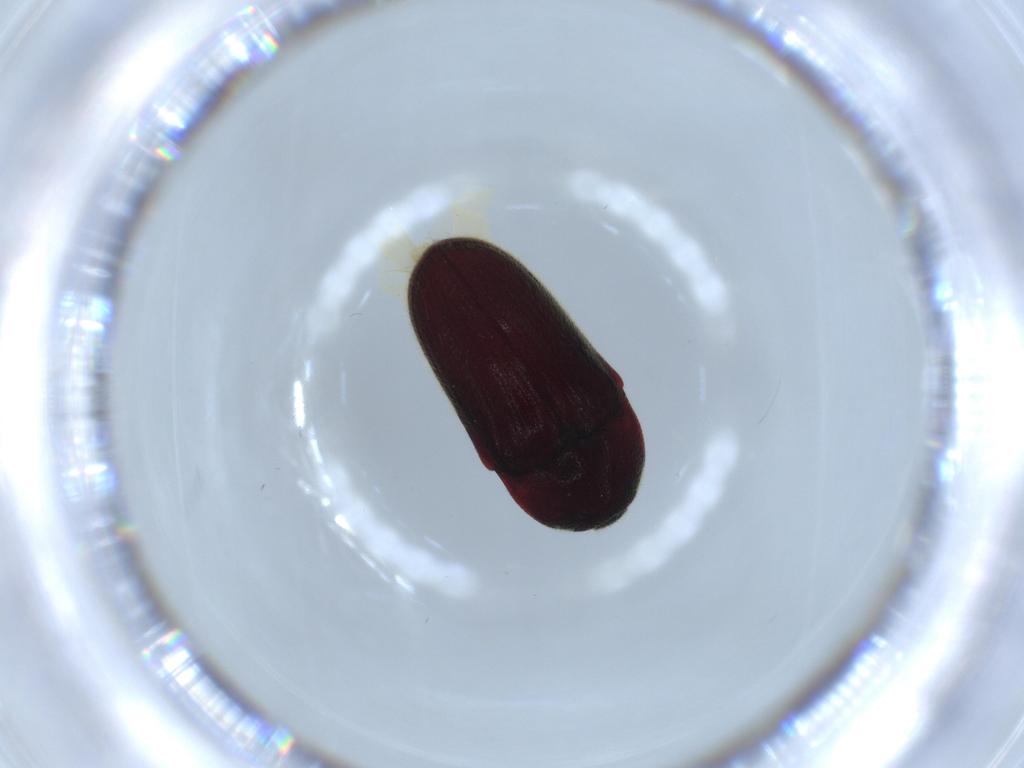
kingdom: Animalia
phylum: Arthropoda
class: Insecta
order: Coleoptera
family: Throscidae
